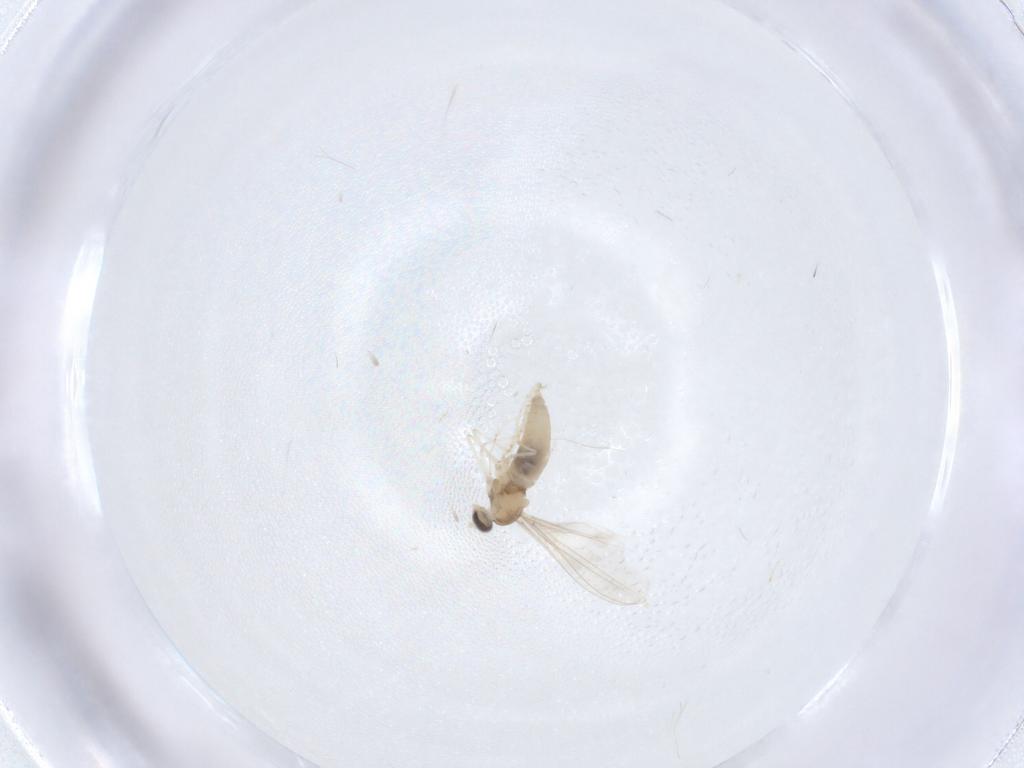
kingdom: Animalia
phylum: Arthropoda
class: Insecta
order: Diptera
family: Cecidomyiidae
